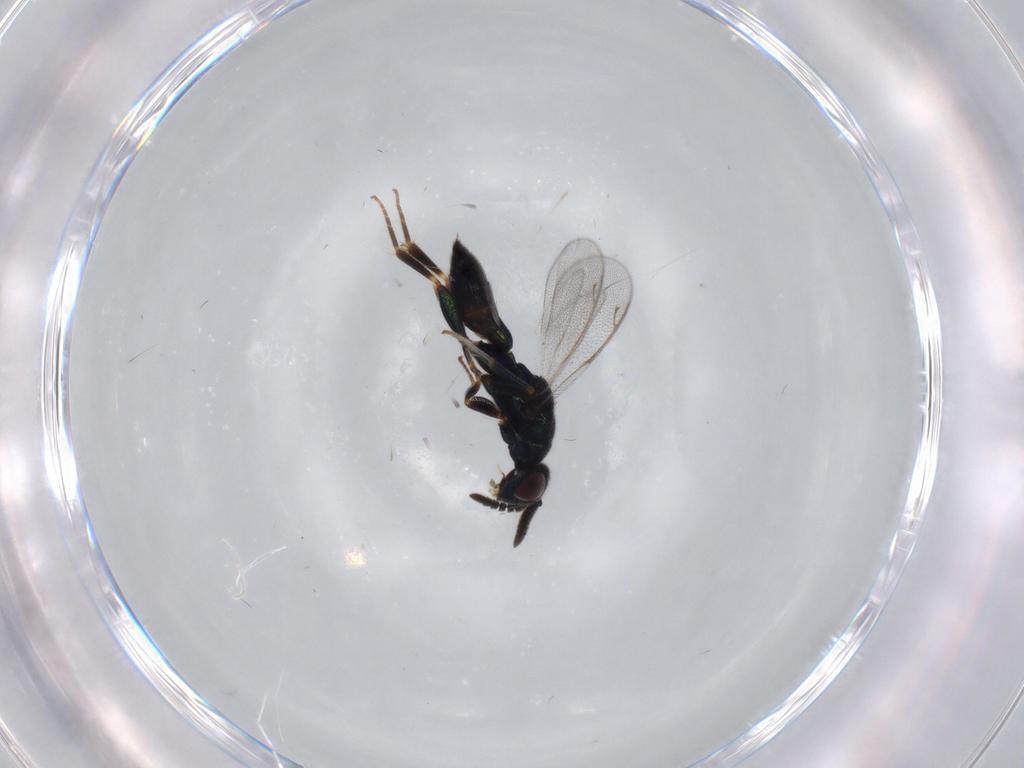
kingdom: Animalia
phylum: Arthropoda
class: Insecta
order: Hymenoptera
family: Cleonyminae
